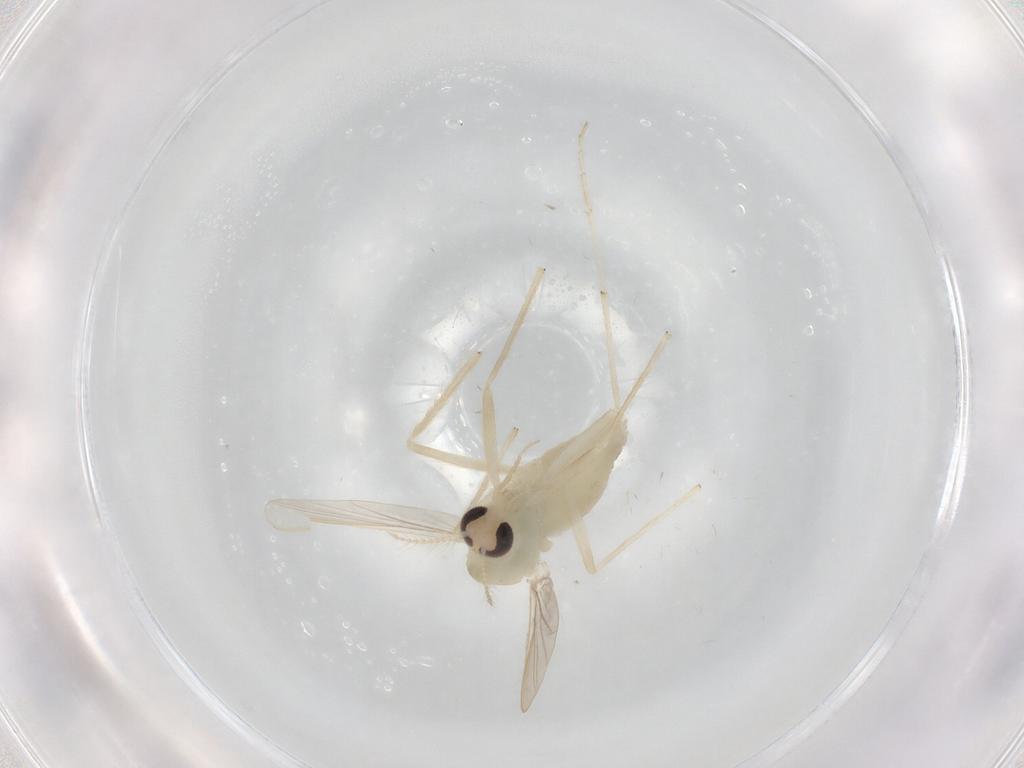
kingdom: Animalia
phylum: Arthropoda
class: Insecta
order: Diptera
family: Chironomidae
